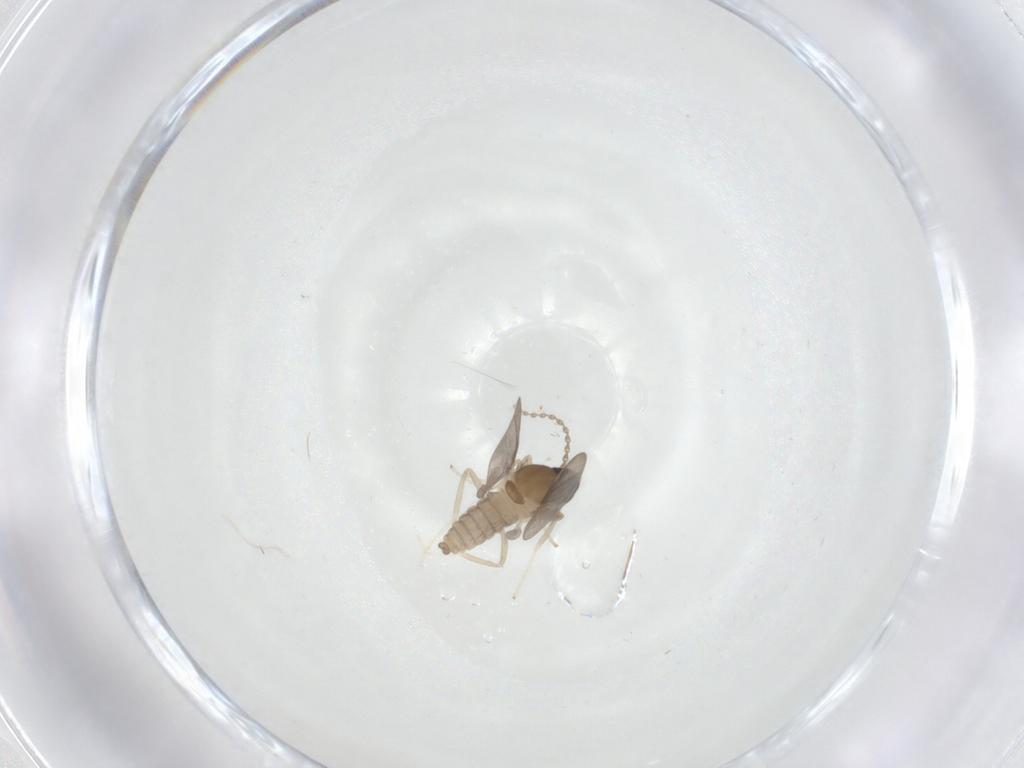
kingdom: Animalia
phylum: Arthropoda
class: Insecta
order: Diptera
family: Cecidomyiidae
